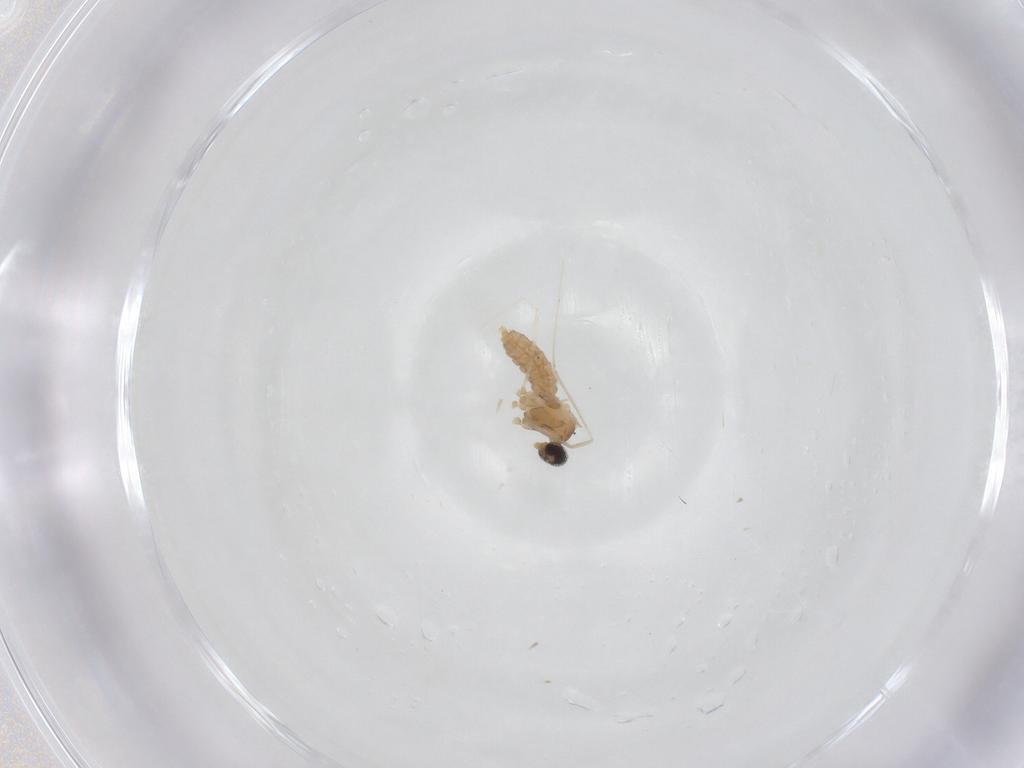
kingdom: Animalia
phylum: Arthropoda
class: Insecta
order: Diptera
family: Cecidomyiidae
